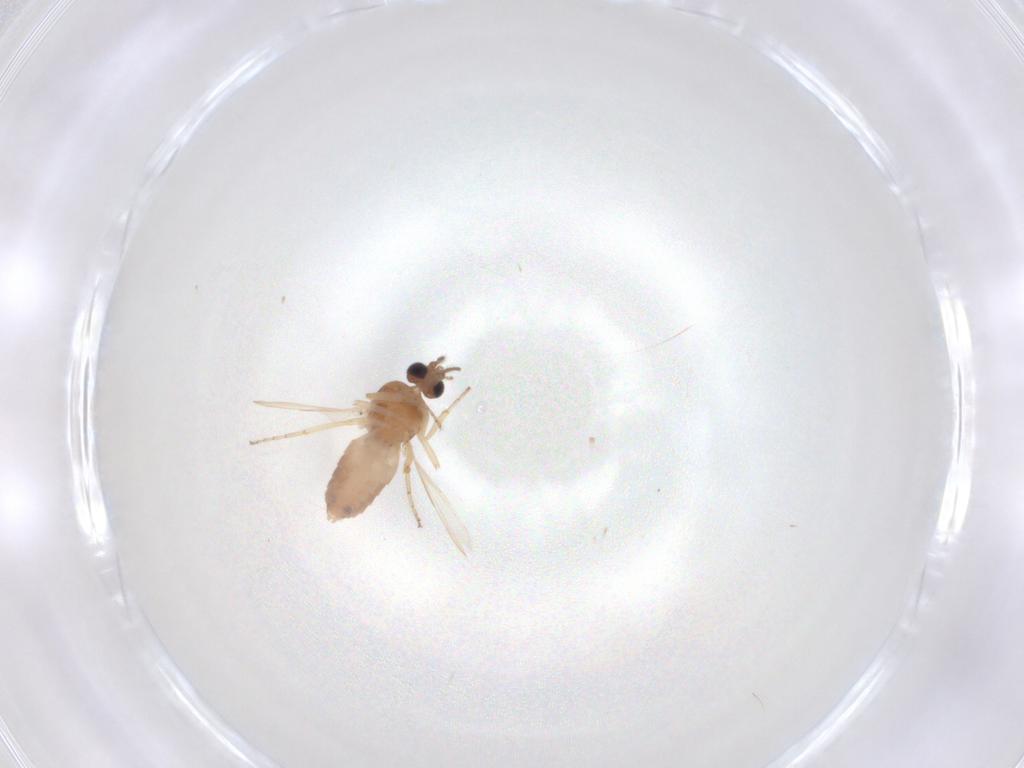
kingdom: Animalia
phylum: Arthropoda
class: Insecta
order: Diptera
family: Ceratopogonidae
